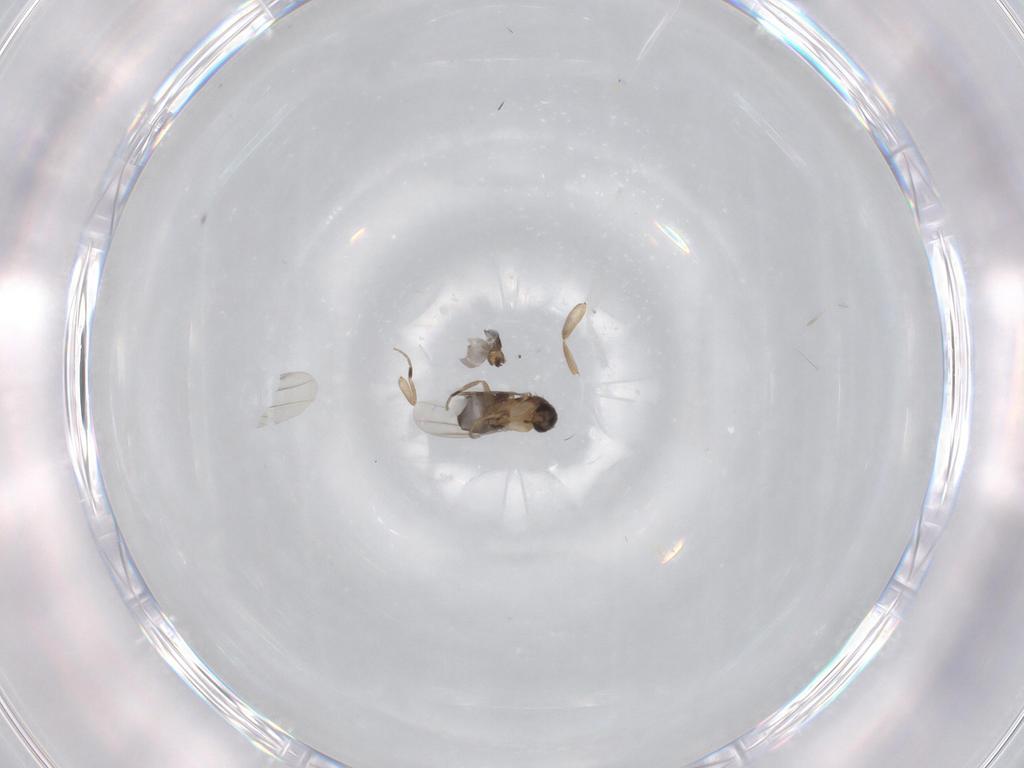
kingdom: Animalia
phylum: Arthropoda
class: Insecta
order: Diptera
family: Phoridae
